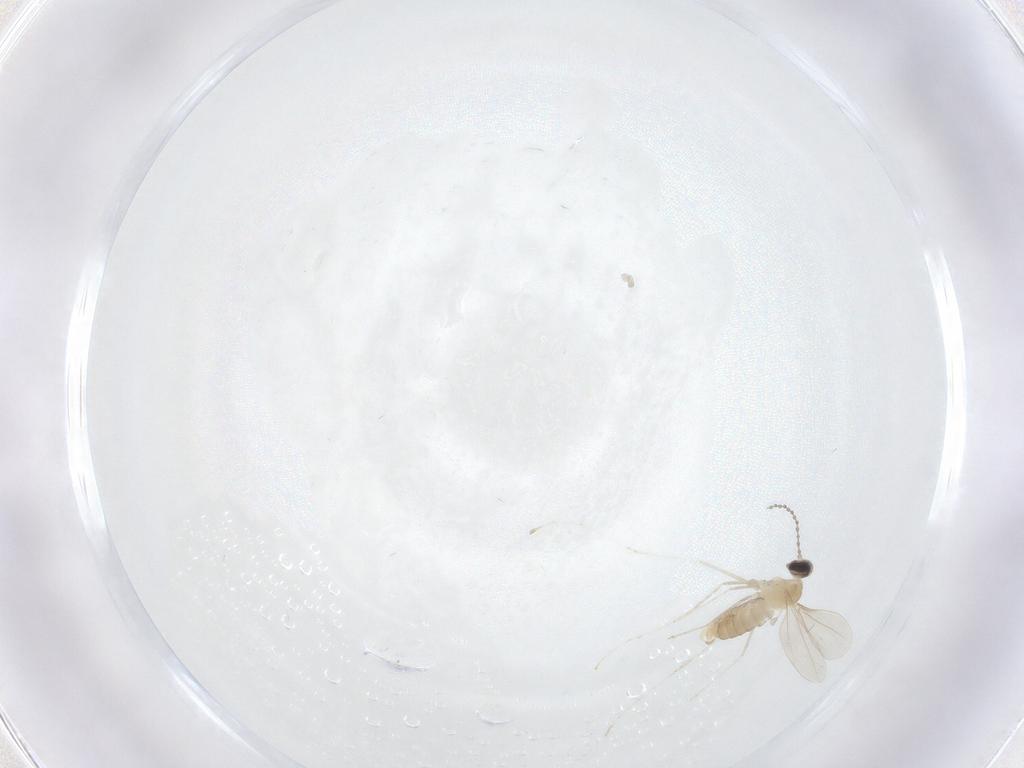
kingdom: Animalia
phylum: Arthropoda
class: Insecta
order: Diptera
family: Cecidomyiidae
